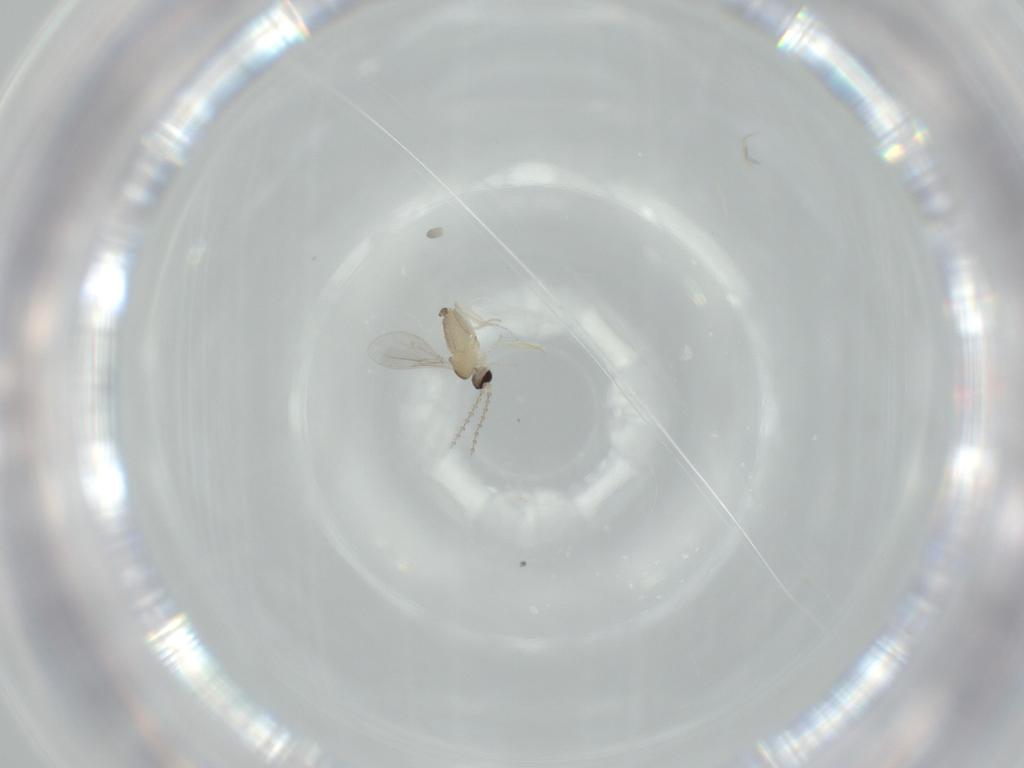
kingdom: Animalia
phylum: Arthropoda
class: Insecta
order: Diptera
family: Cecidomyiidae
